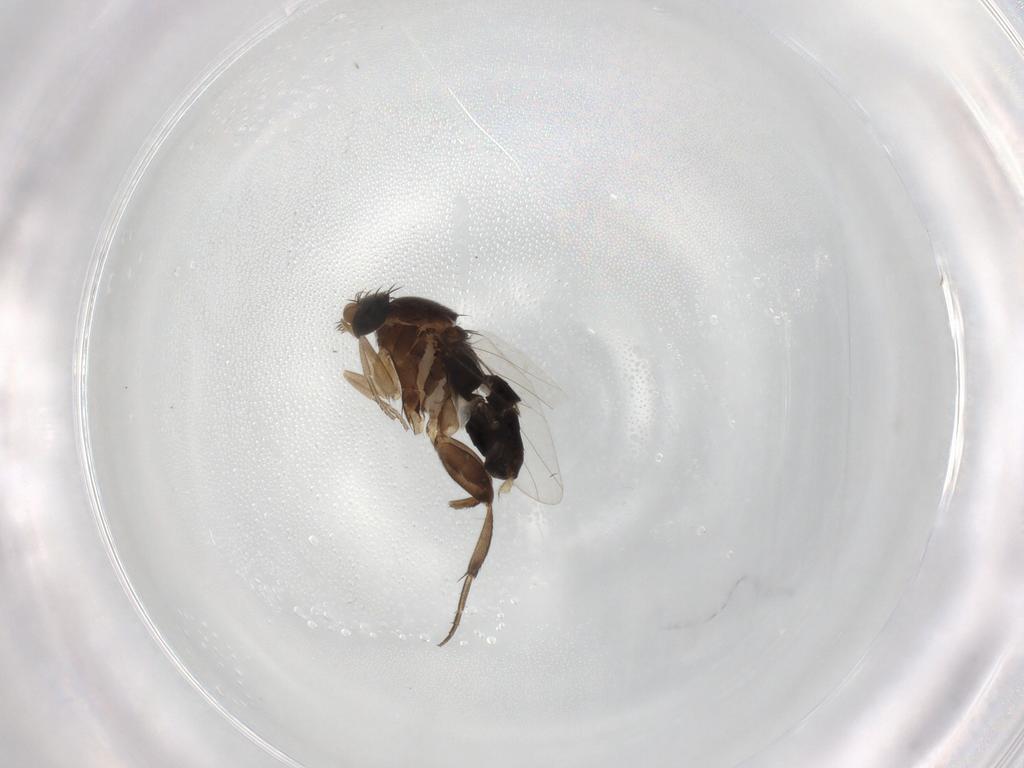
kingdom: Animalia
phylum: Arthropoda
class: Insecta
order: Diptera
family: Phoridae
